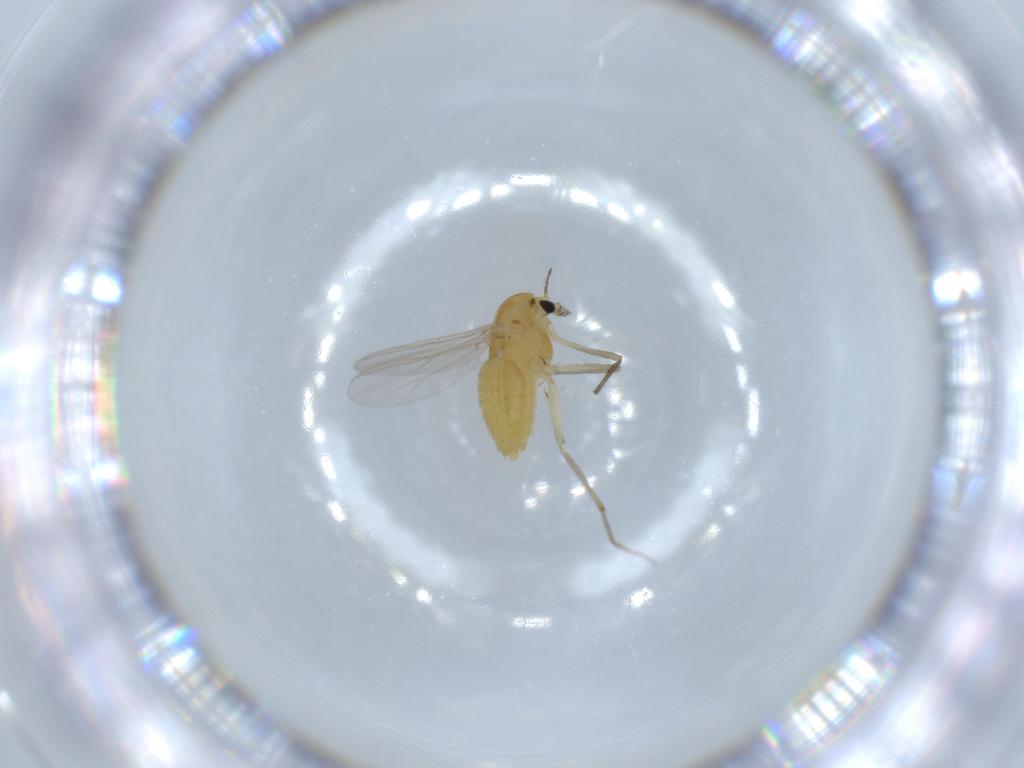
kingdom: Animalia
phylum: Arthropoda
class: Insecta
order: Diptera
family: Chironomidae
